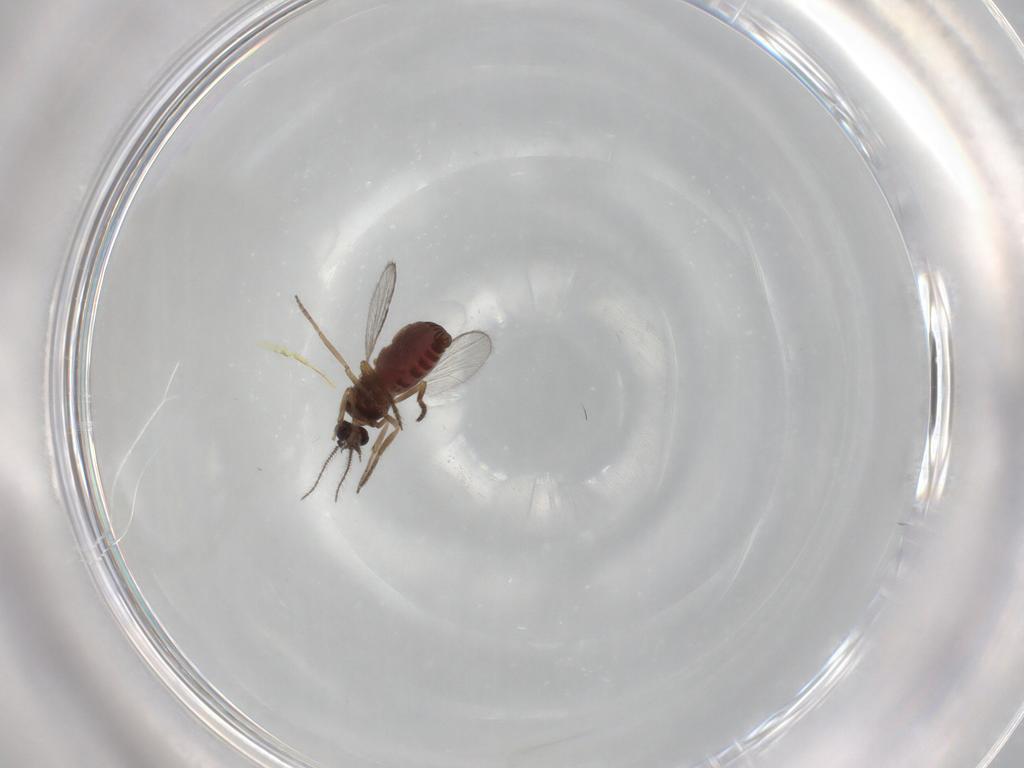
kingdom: Animalia
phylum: Arthropoda
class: Insecta
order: Diptera
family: Ceratopogonidae
